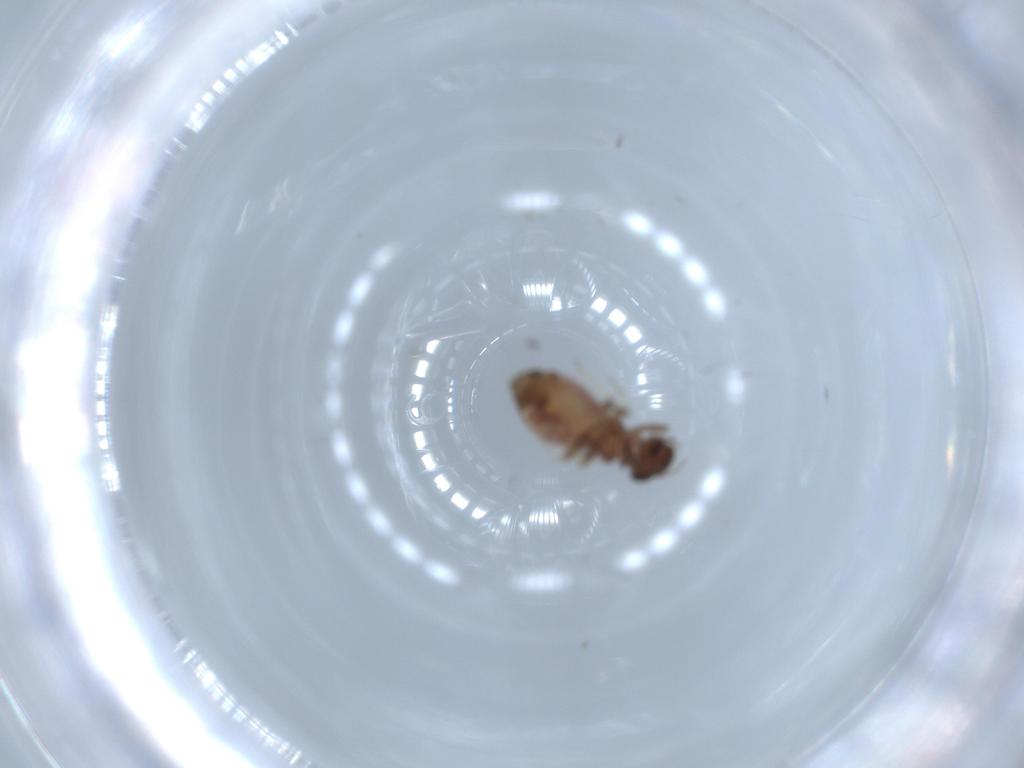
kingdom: Animalia
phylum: Arthropoda
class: Insecta
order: Psocodea
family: Archipsocidae
